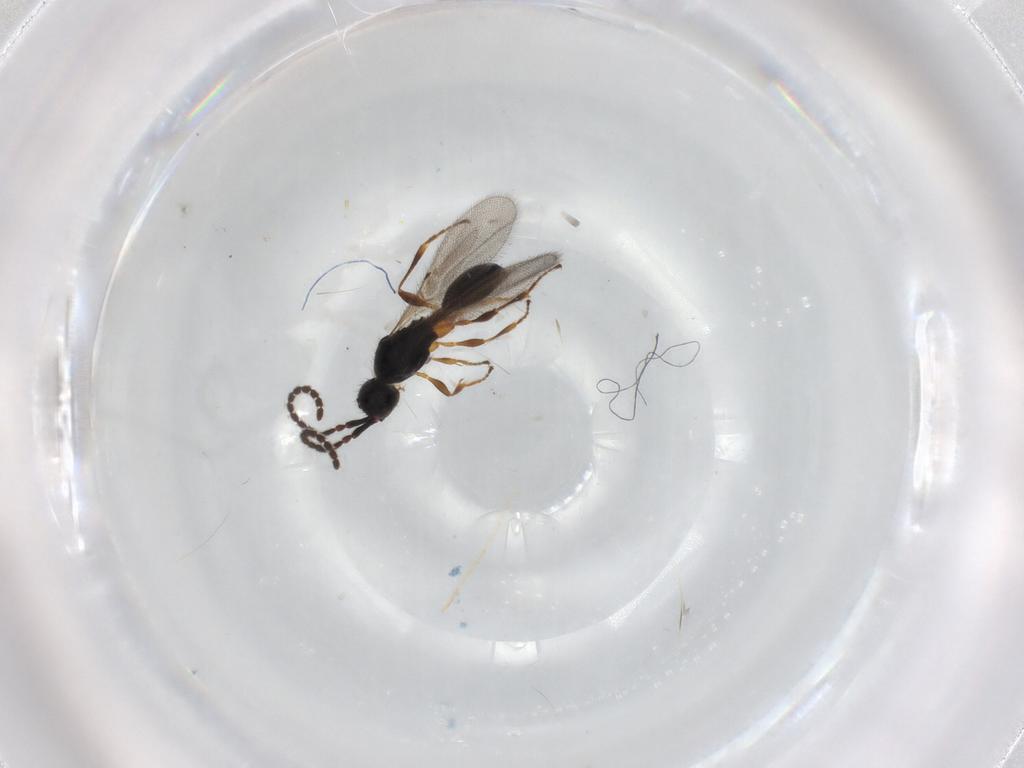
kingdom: Animalia
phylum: Arthropoda
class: Insecta
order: Hymenoptera
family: Diapriidae
